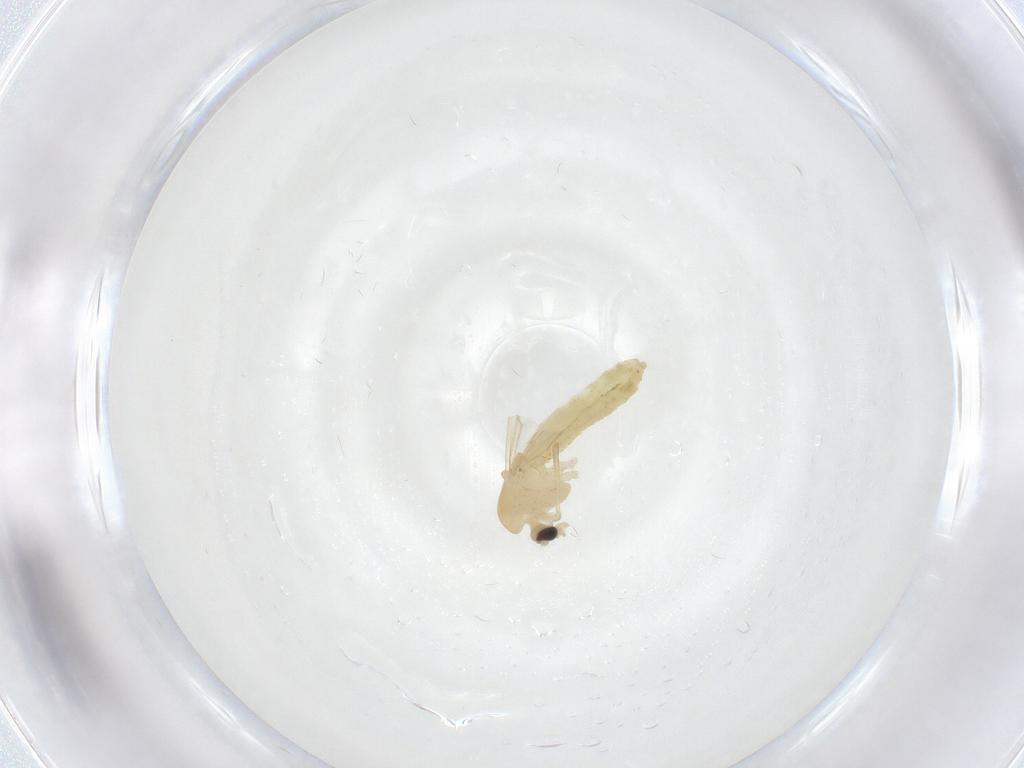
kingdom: Animalia
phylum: Arthropoda
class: Insecta
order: Diptera
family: Chironomidae
